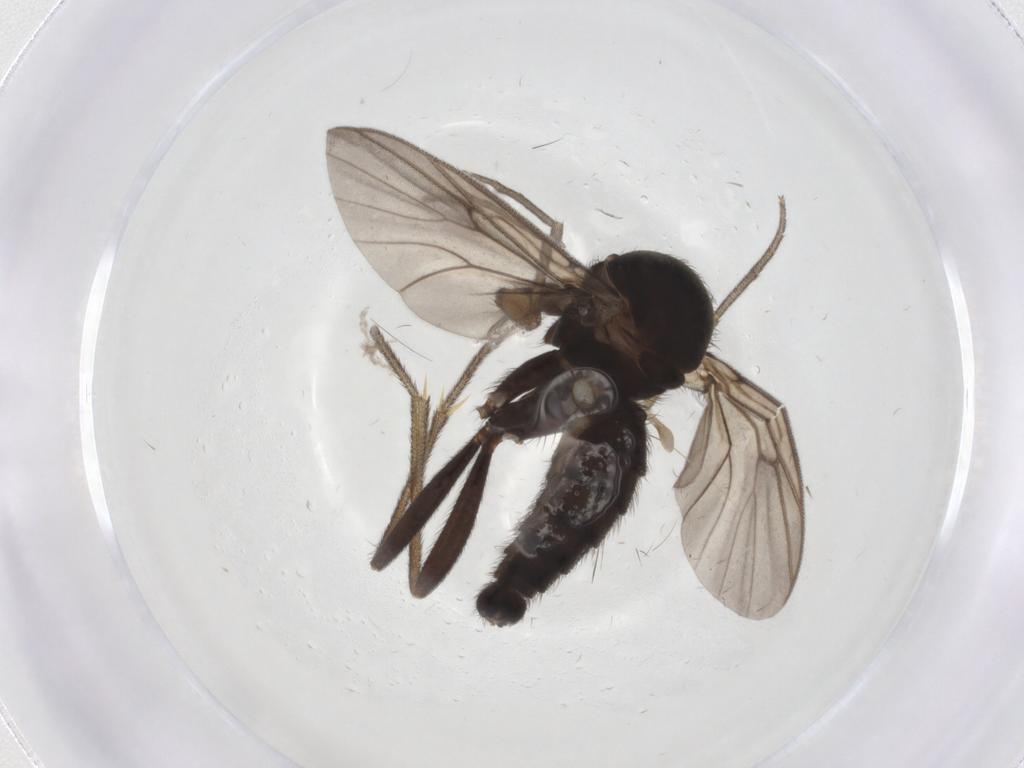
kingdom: Animalia
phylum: Arthropoda
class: Insecta
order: Diptera
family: Mycetophilidae
